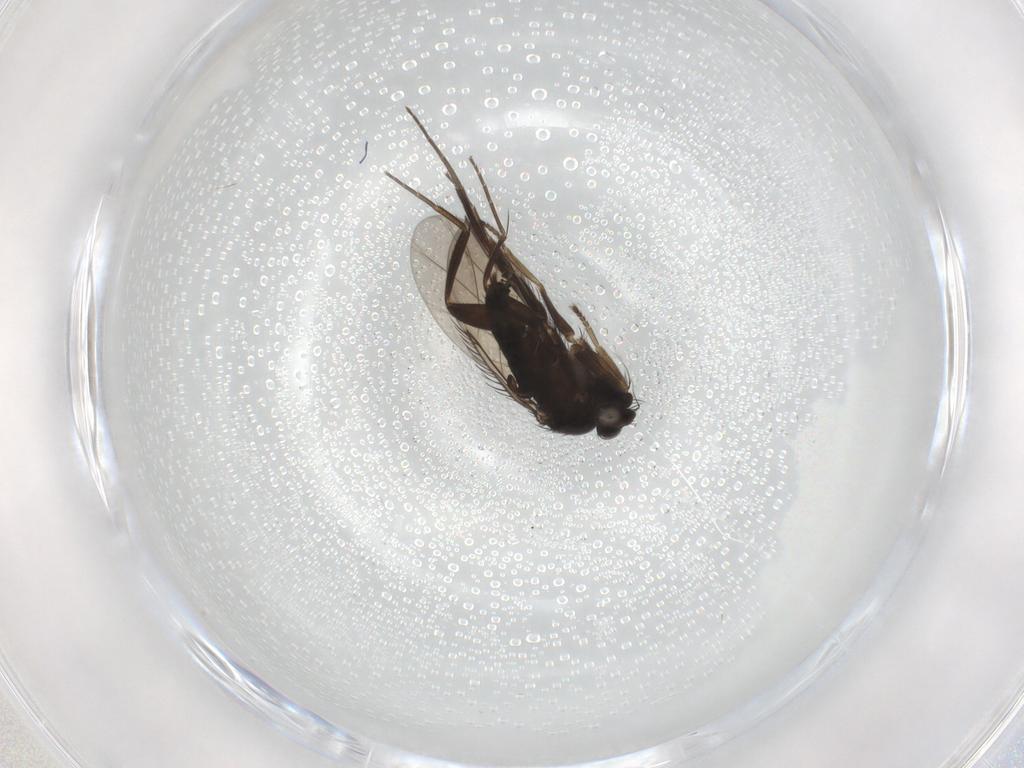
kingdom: Animalia
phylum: Arthropoda
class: Insecta
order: Diptera
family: Phoridae
